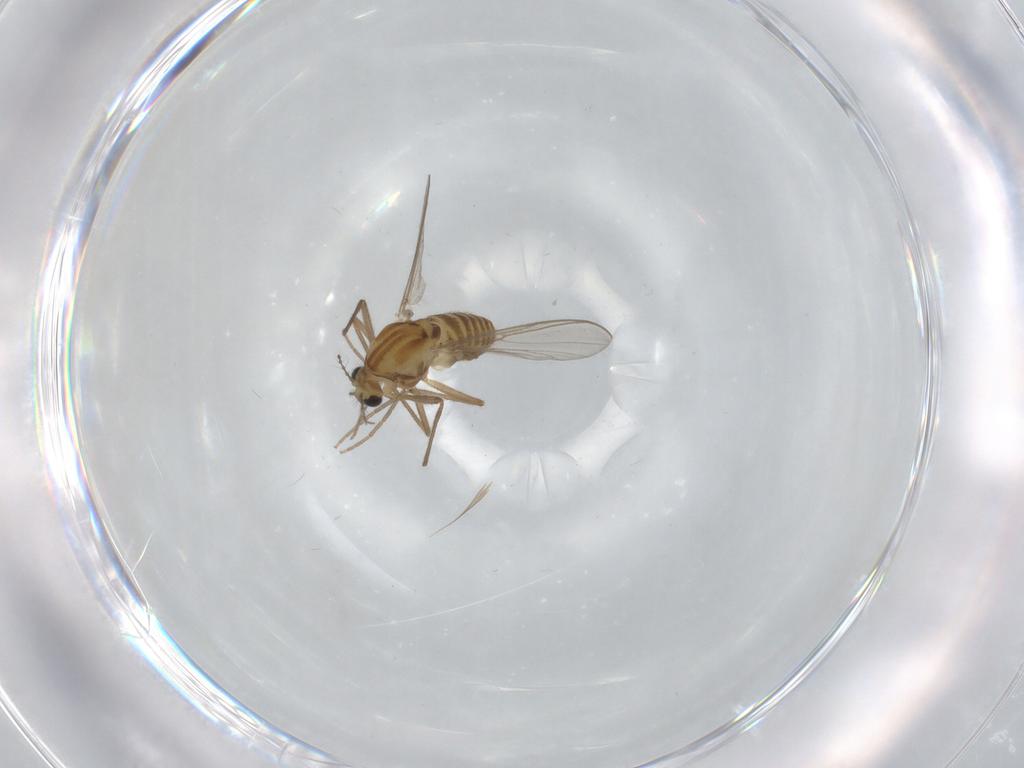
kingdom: Animalia
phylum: Arthropoda
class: Insecta
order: Diptera
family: Chironomidae
